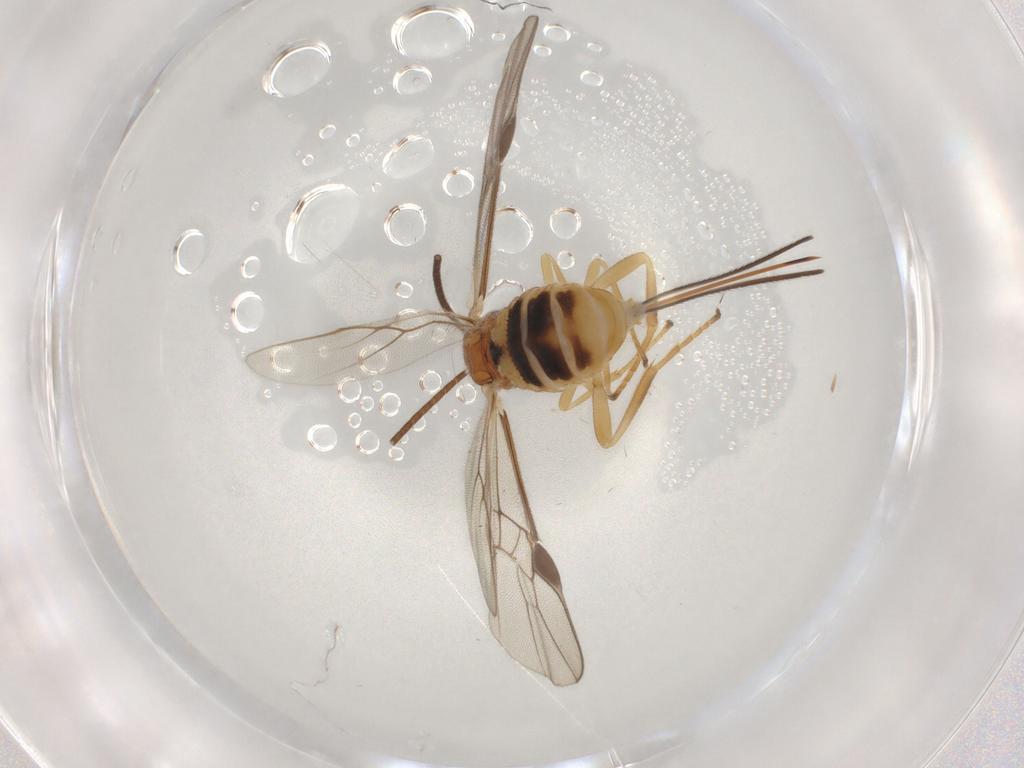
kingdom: Animalia
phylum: Arthropoda
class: Insecta
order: Hymenoptera
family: Braconidae
